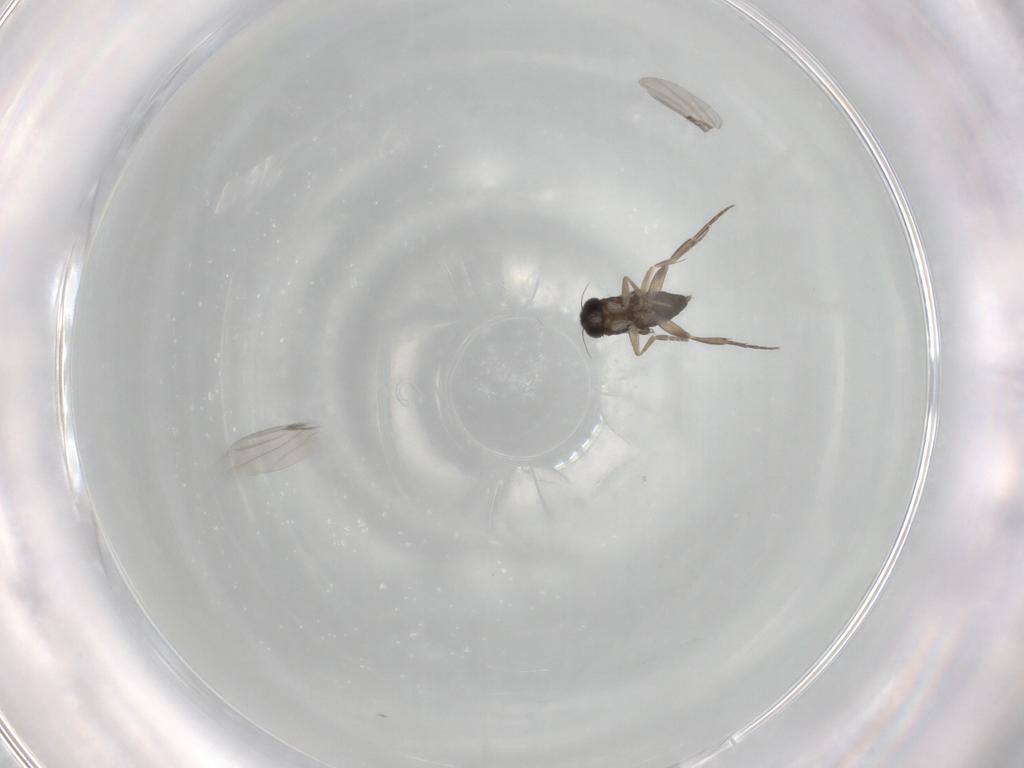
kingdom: Animalia
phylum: Arthropoda
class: Insecta
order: Diptera
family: Phoridae
